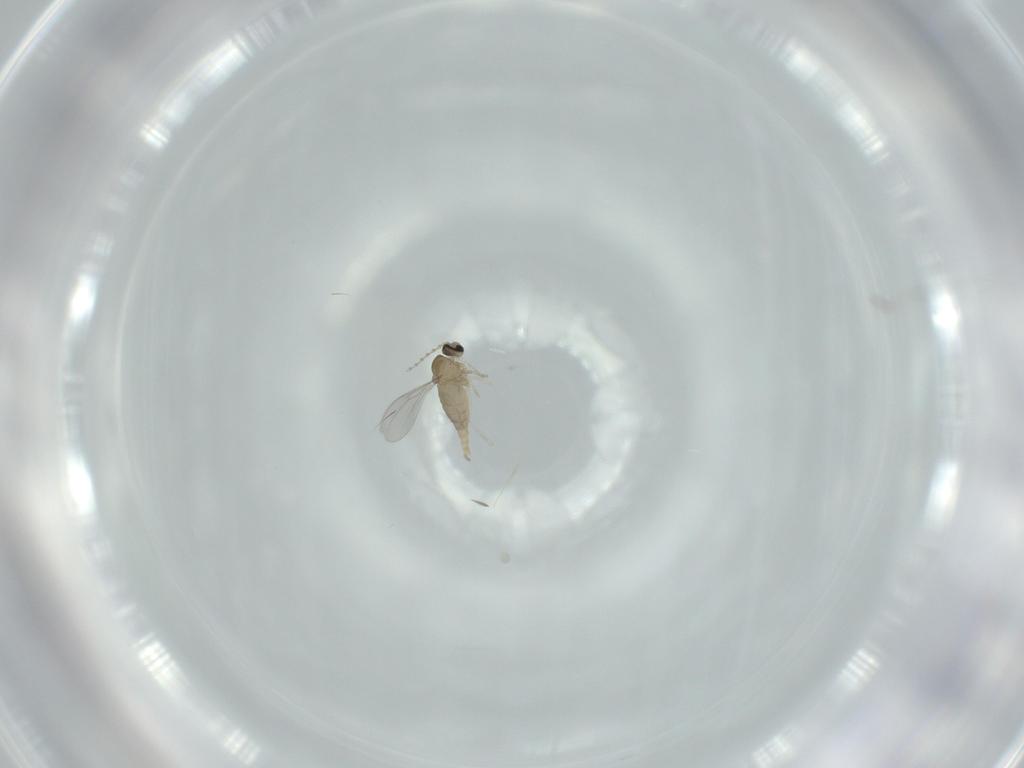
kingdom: Animalia
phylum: Arthropoda
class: Insecta
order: Diptera
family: Cecidomyiidae
